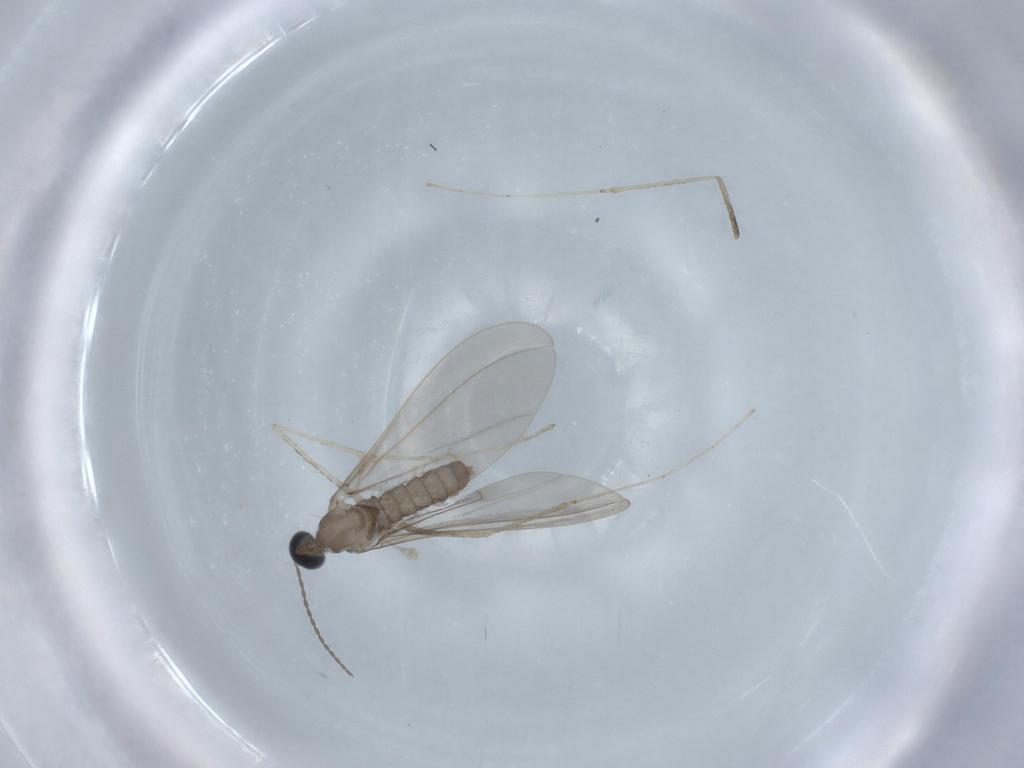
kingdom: Animalia
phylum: Arthropoda
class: Insecta
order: Diptera
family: Cecidomyiidae
